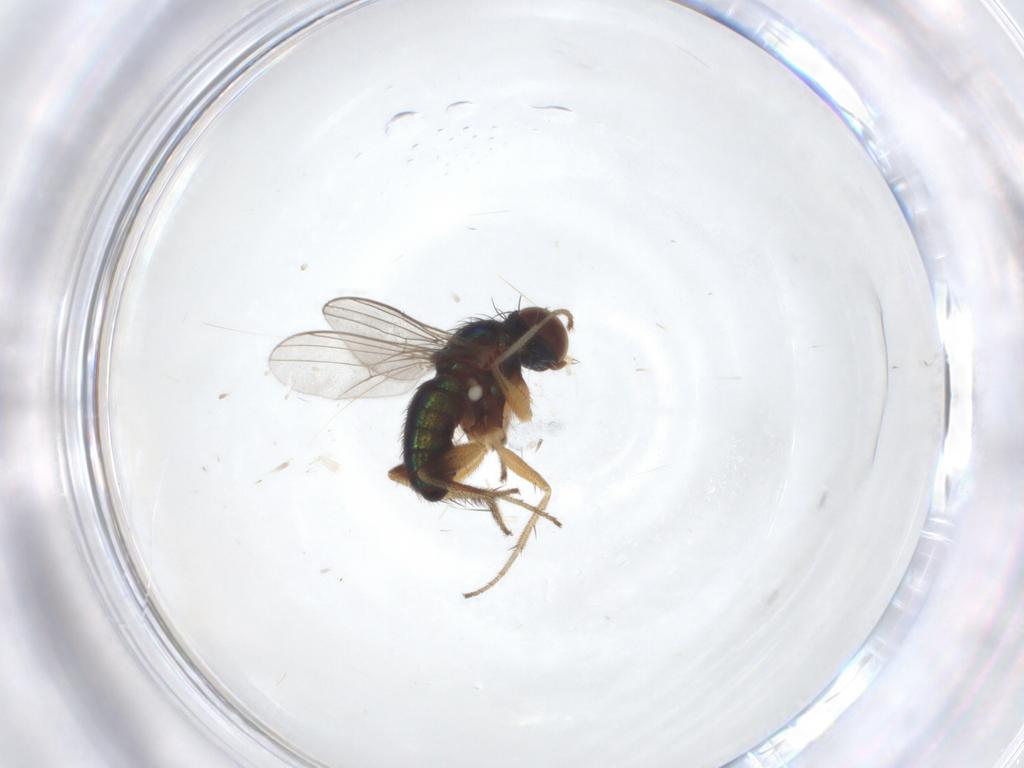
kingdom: Animalia
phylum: Arthropoda
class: Insecta
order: Diptera
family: Mycetophilidae
